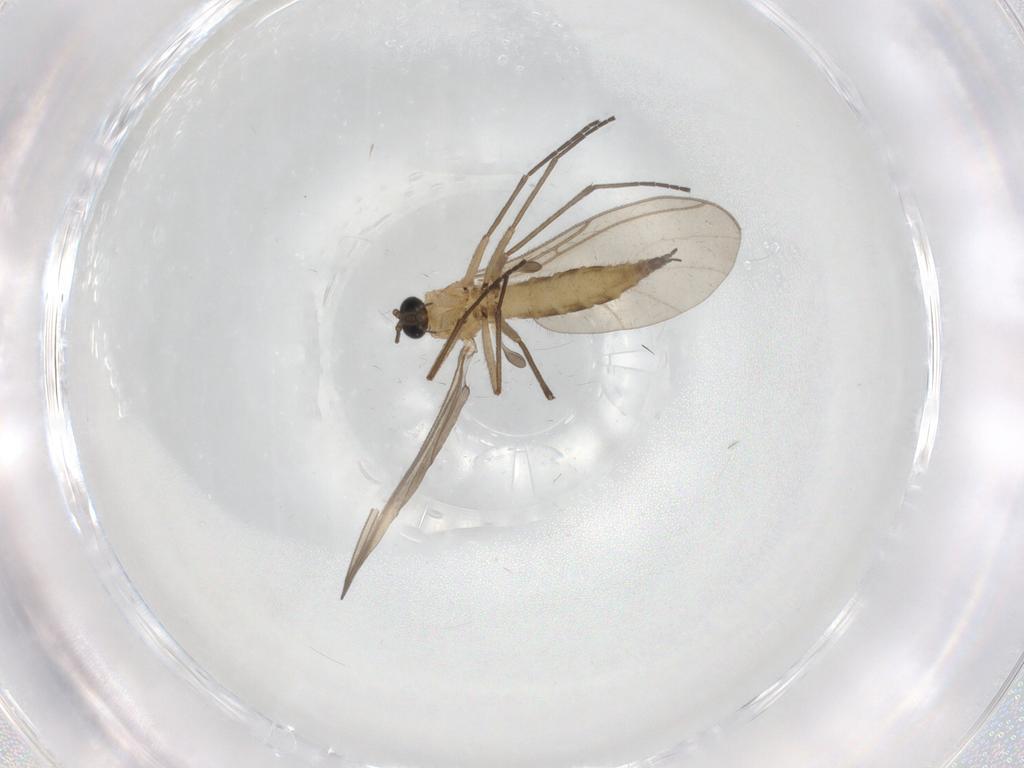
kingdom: Animalia
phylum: Arthropoda
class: Insecta
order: Diptera
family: Sciaridae
